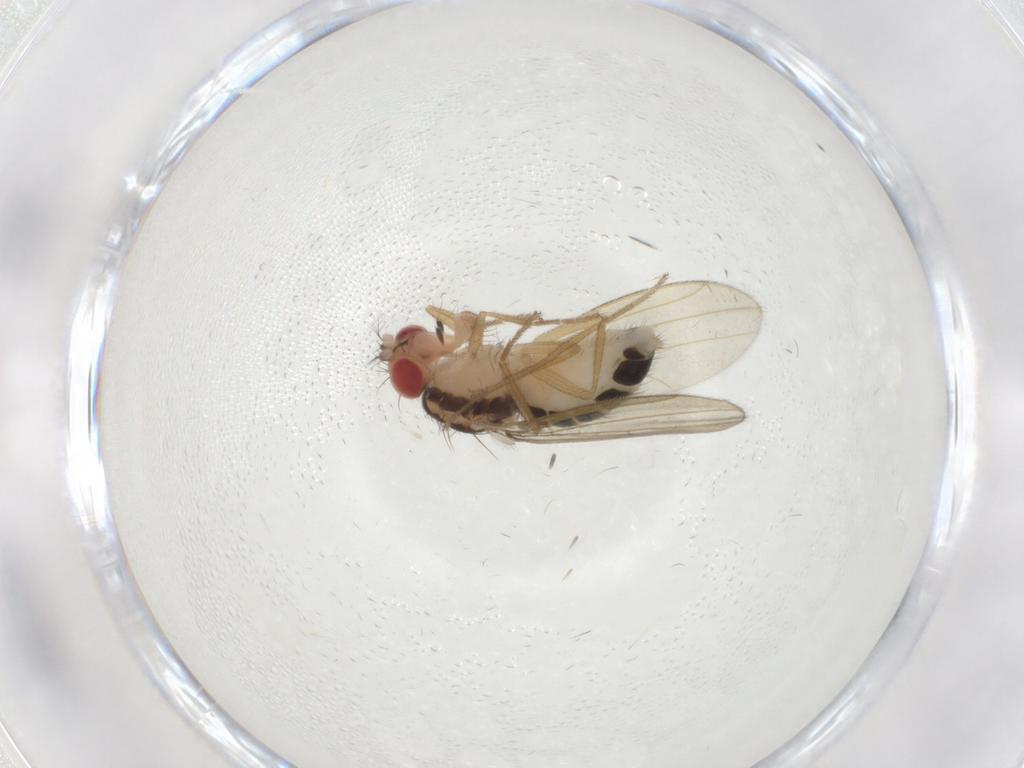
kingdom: Animalia
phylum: Arthropoda
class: Insecta
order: Diptera
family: Drosophilidae
